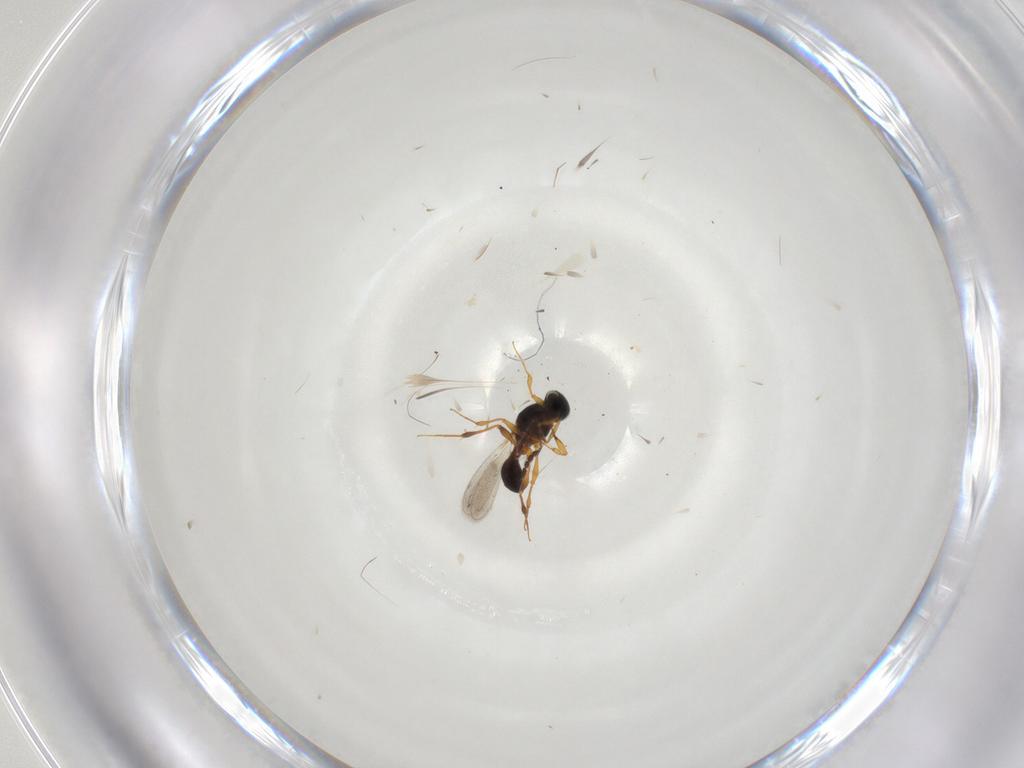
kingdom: Animalia
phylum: Arthropoda
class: Insecta
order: Hymenoptera
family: Platygastridae
